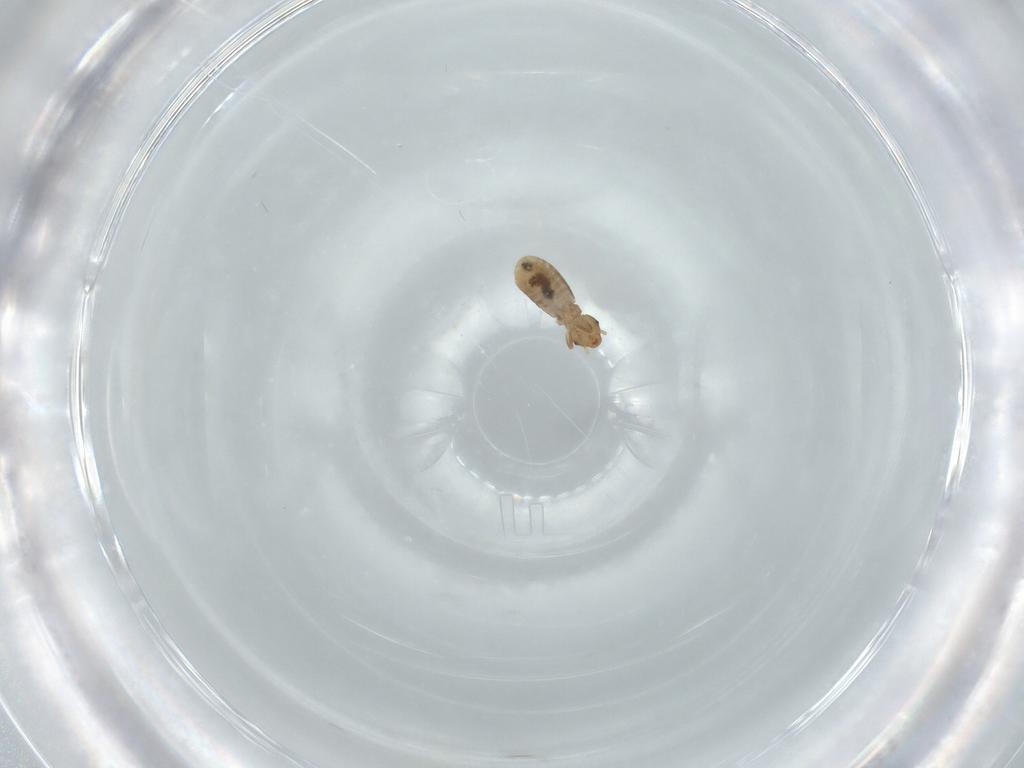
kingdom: Animalia
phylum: Arthropoda
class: Insecta
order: Psocodea
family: Liposcelididae
